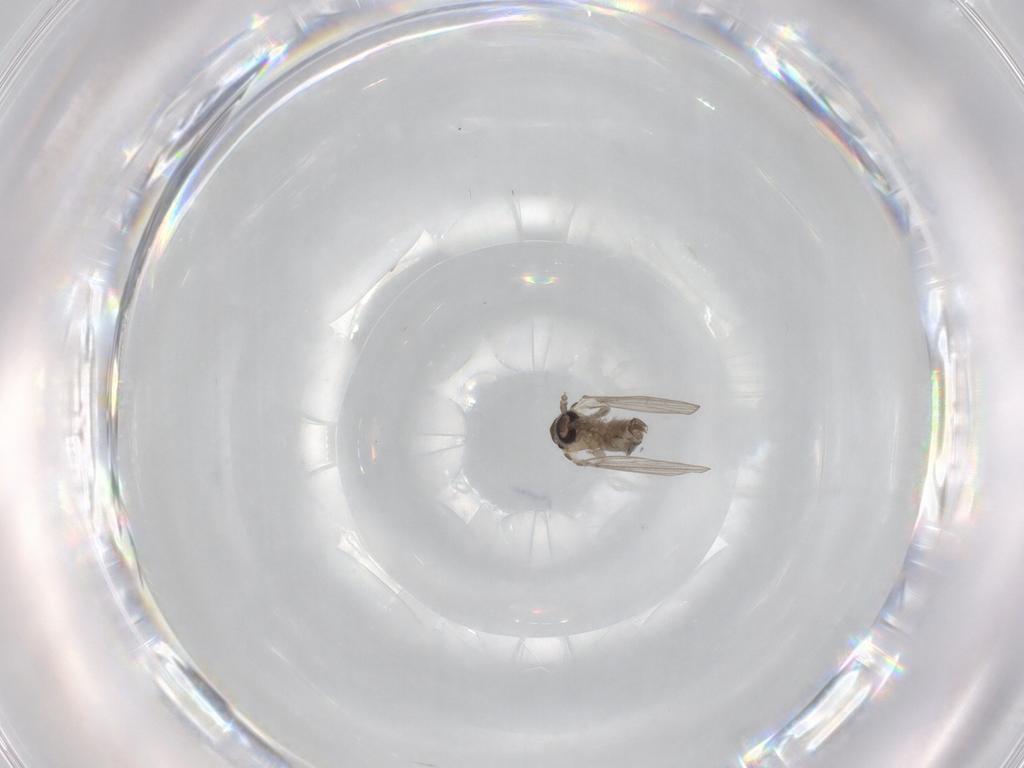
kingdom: Animalia
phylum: Arthropoda
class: Insecta
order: Diptera
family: Psychodidae
